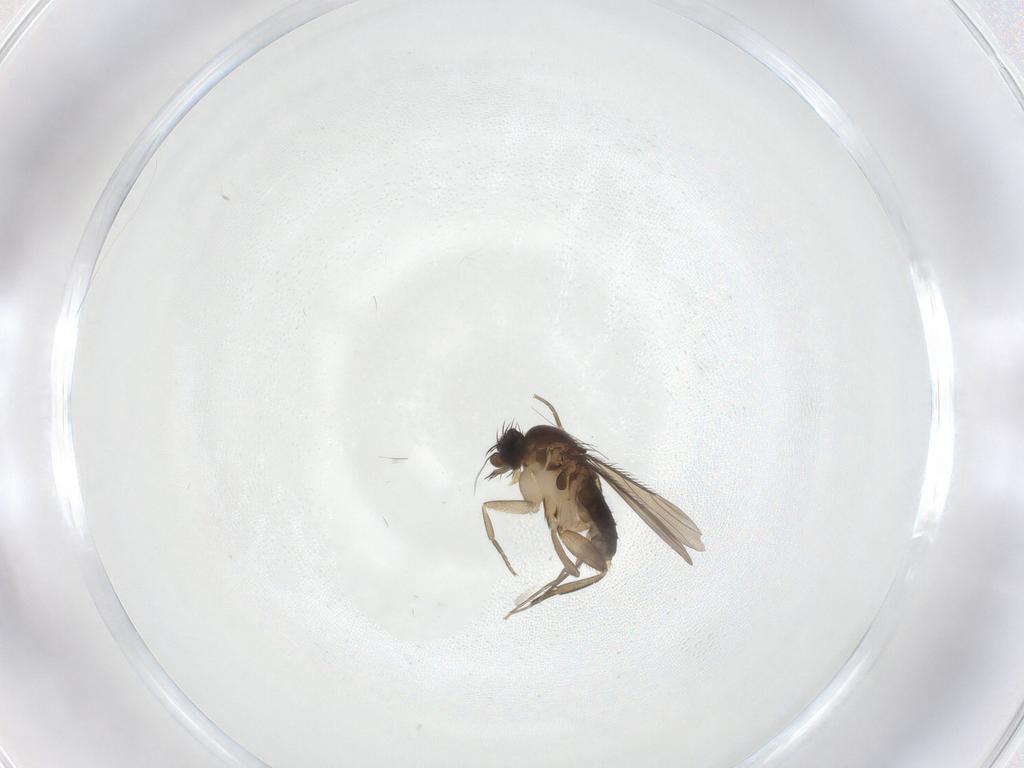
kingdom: Animalia
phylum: Arthropoda
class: Insecta
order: Diptera
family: Phoridae
